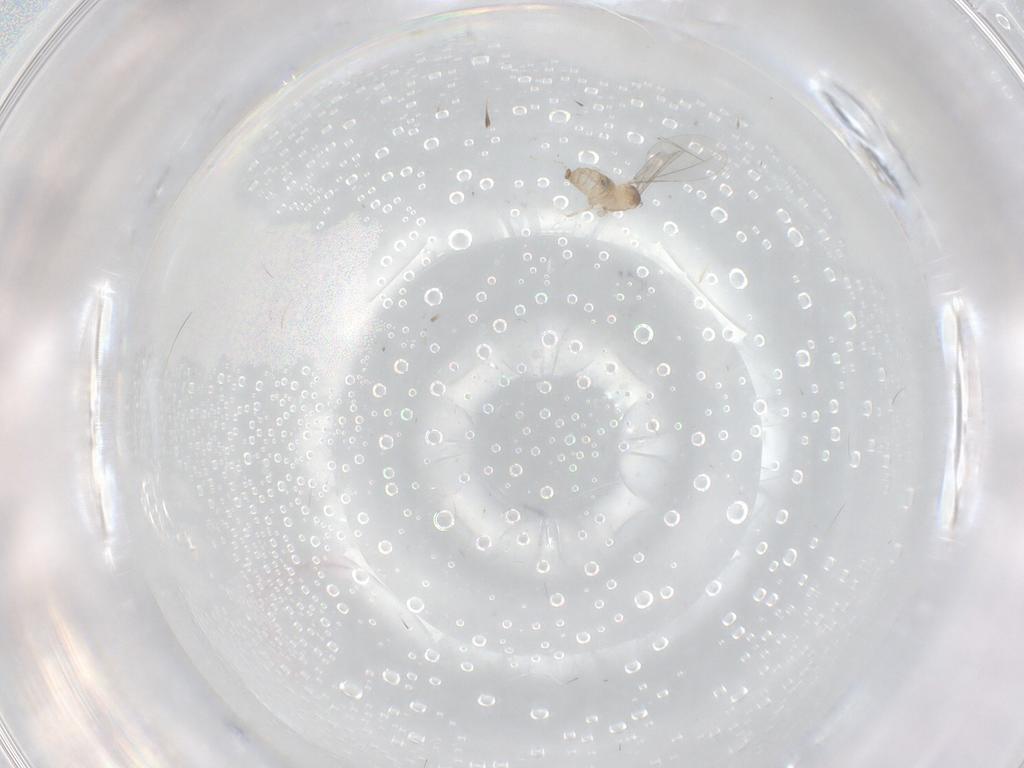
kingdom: Animalia
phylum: Arthropoda
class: Insecta
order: Diptera
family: Cecidomyiidae
